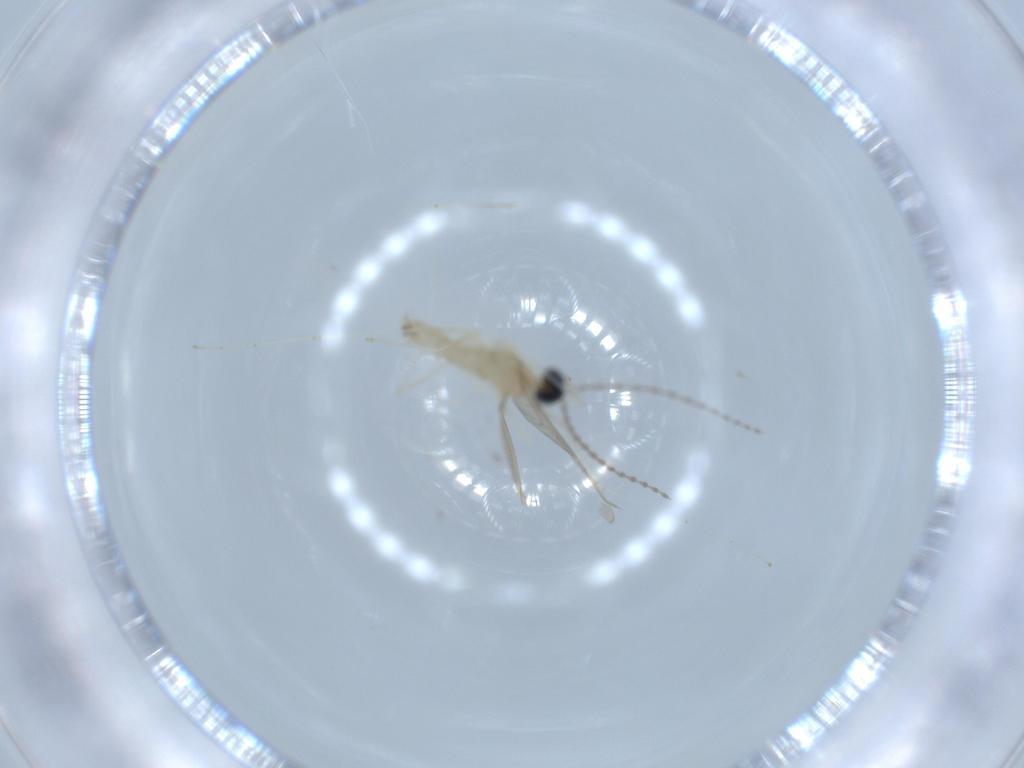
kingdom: Animalia
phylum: Arthropoda
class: Insecta
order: Diptera
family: Cecidomyiidae
